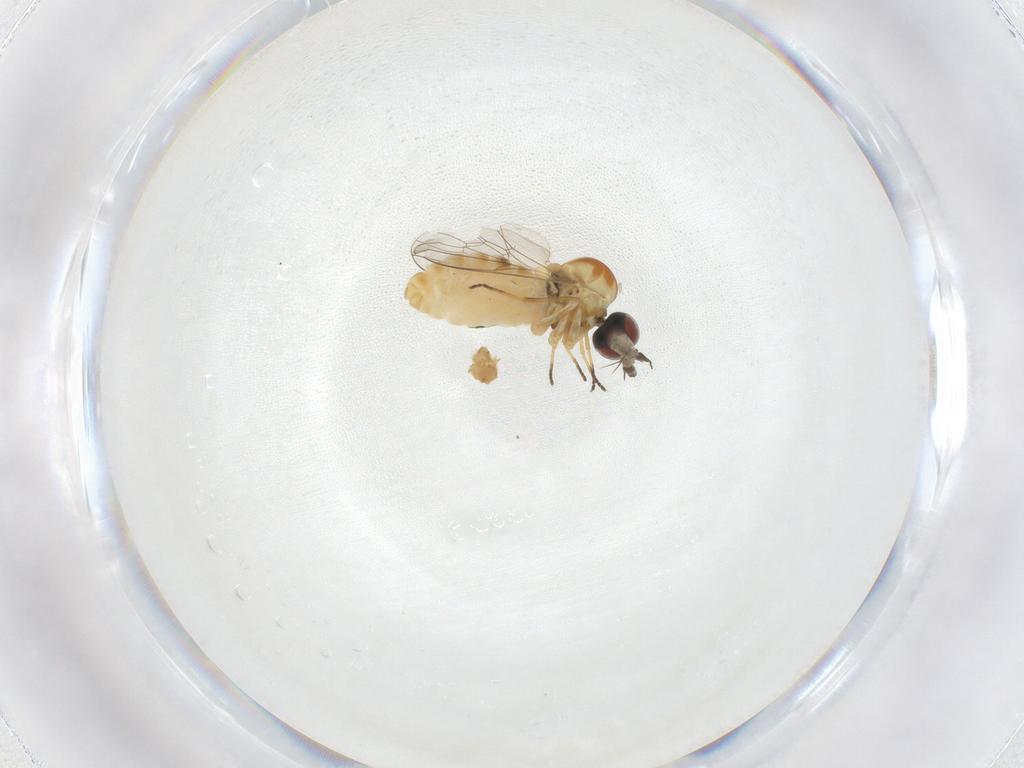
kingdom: Animalia
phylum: Arthropoda
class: Insecta
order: Diptera
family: Bombyliidae
